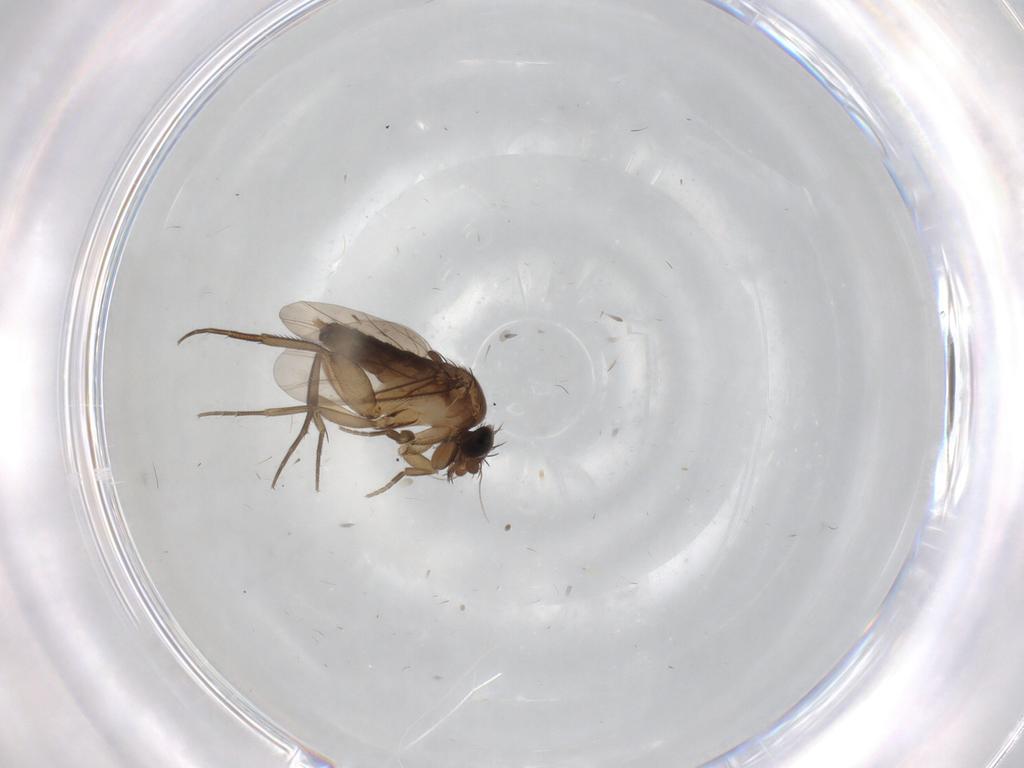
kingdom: Animalia
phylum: Arthropoda
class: Insecta
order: Diptera
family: Phoridae
